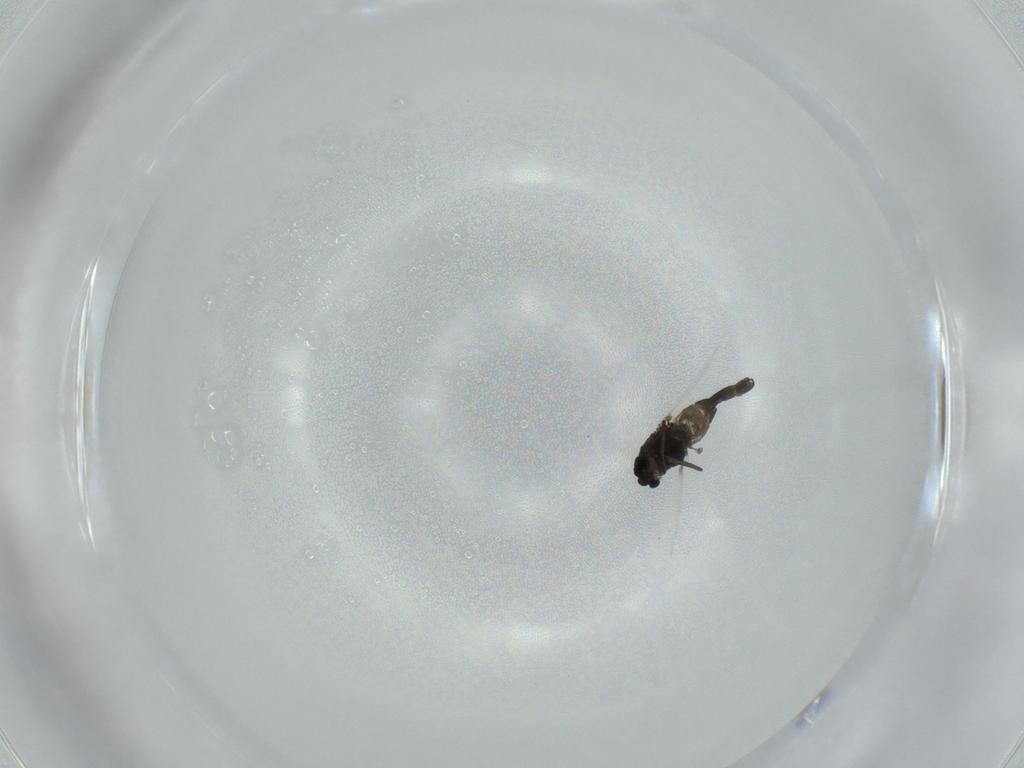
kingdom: Animalia
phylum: Arthropoda
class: Insecta
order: Diptera
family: Chironomidae
